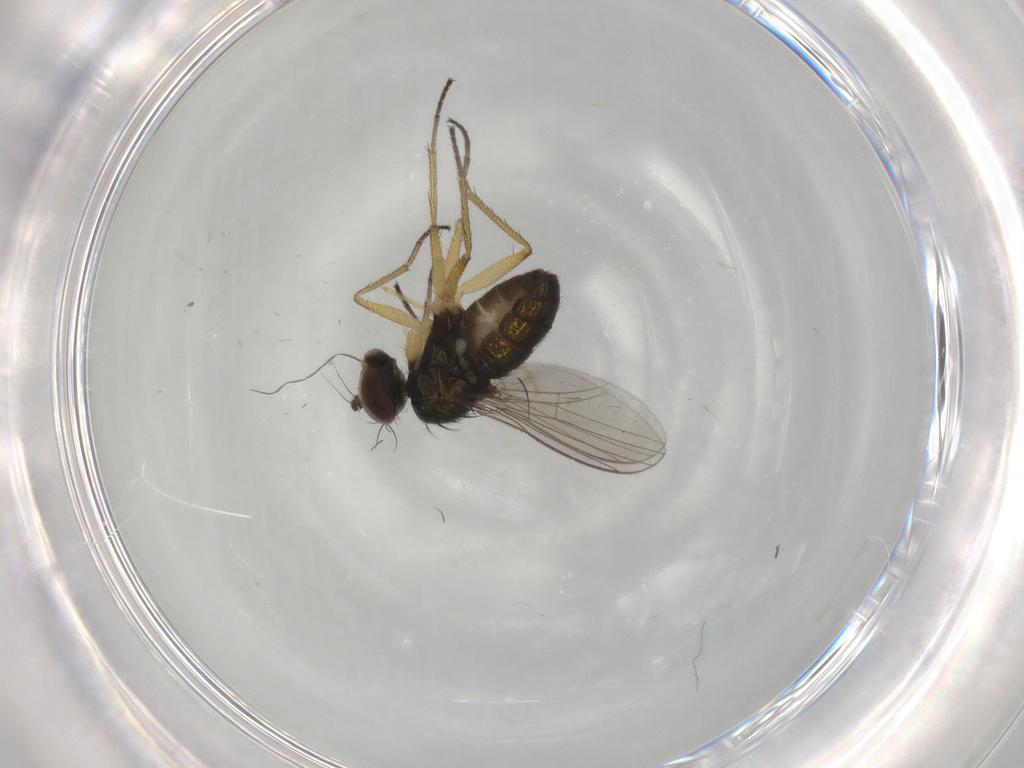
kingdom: Animalia
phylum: Arthropoda
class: Insecta
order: Diptera
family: Chironomidae
